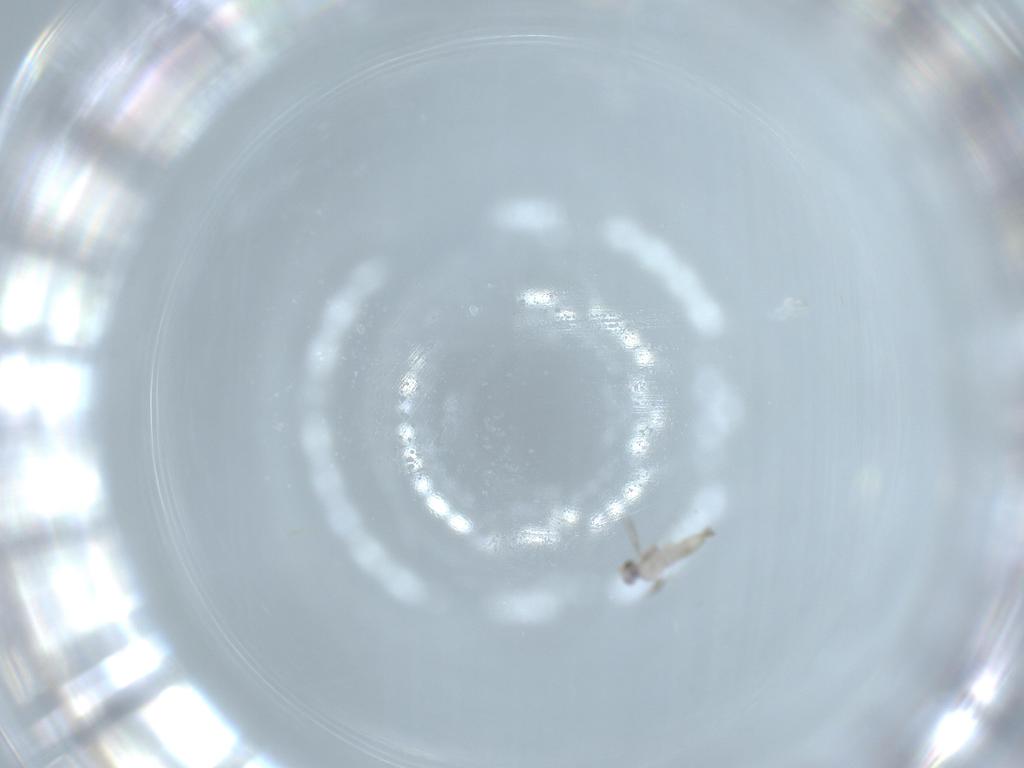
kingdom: Animalia
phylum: Arthropoda
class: Insecta
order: Diptera
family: Cecidomyiidae
